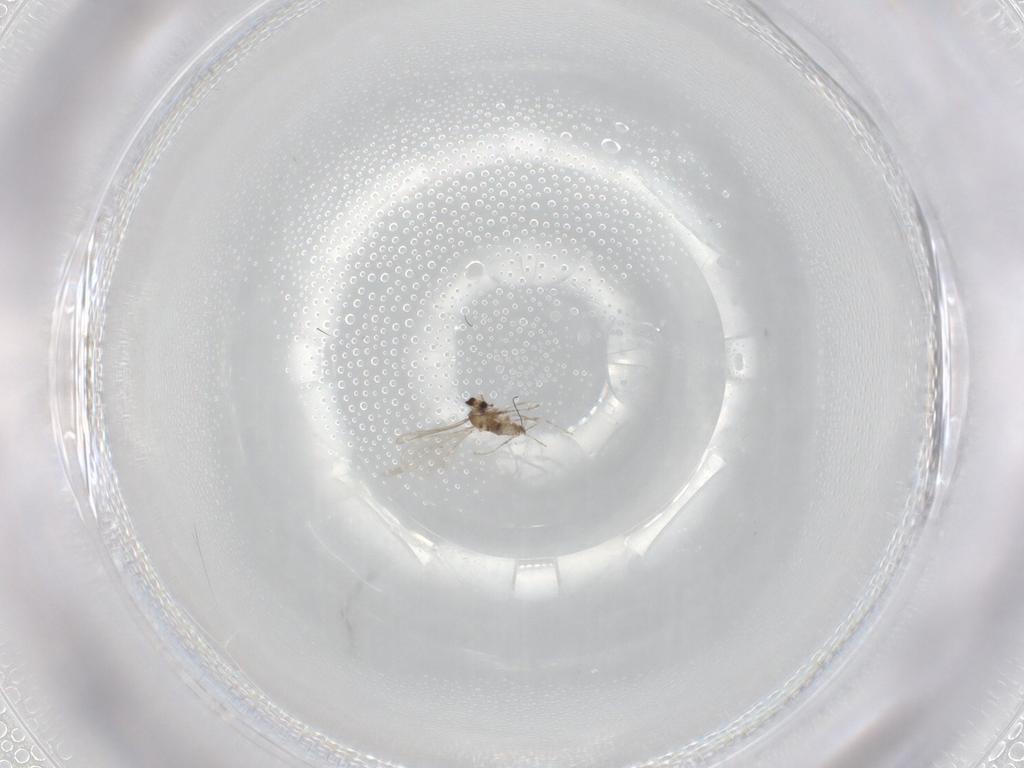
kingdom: Animalia
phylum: Arthropoda
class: Insecta
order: Diptera
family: Cecidomyiidae
